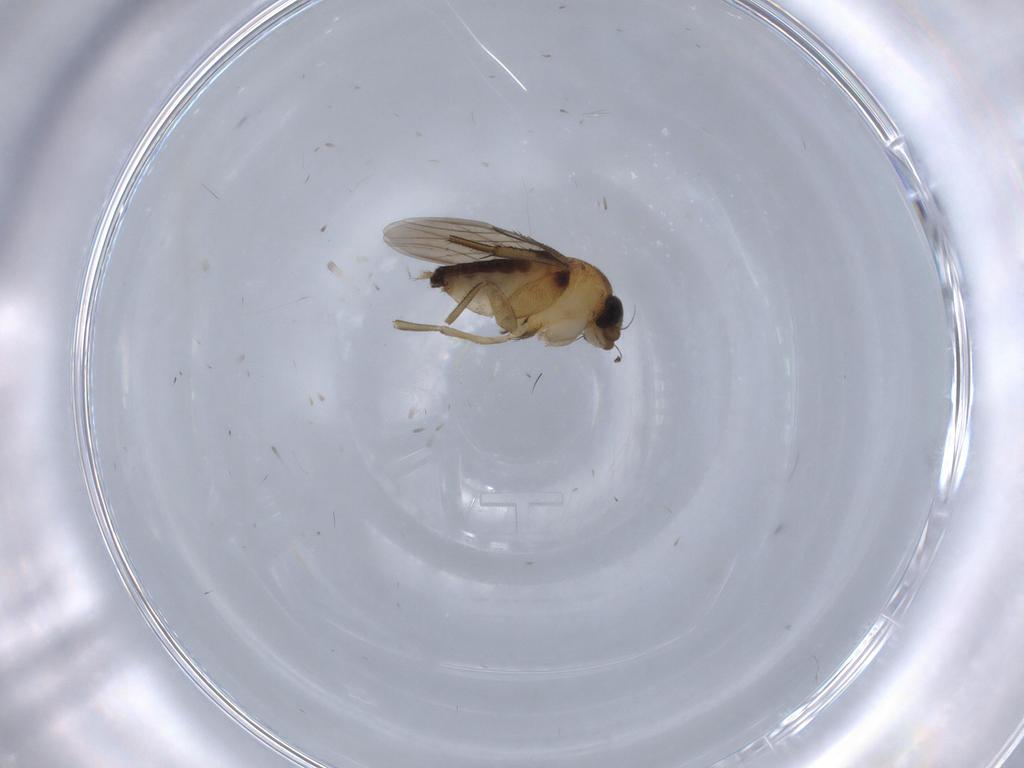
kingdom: Animalia
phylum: Arthropoda
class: Insecta
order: Diptera
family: Phoridae
